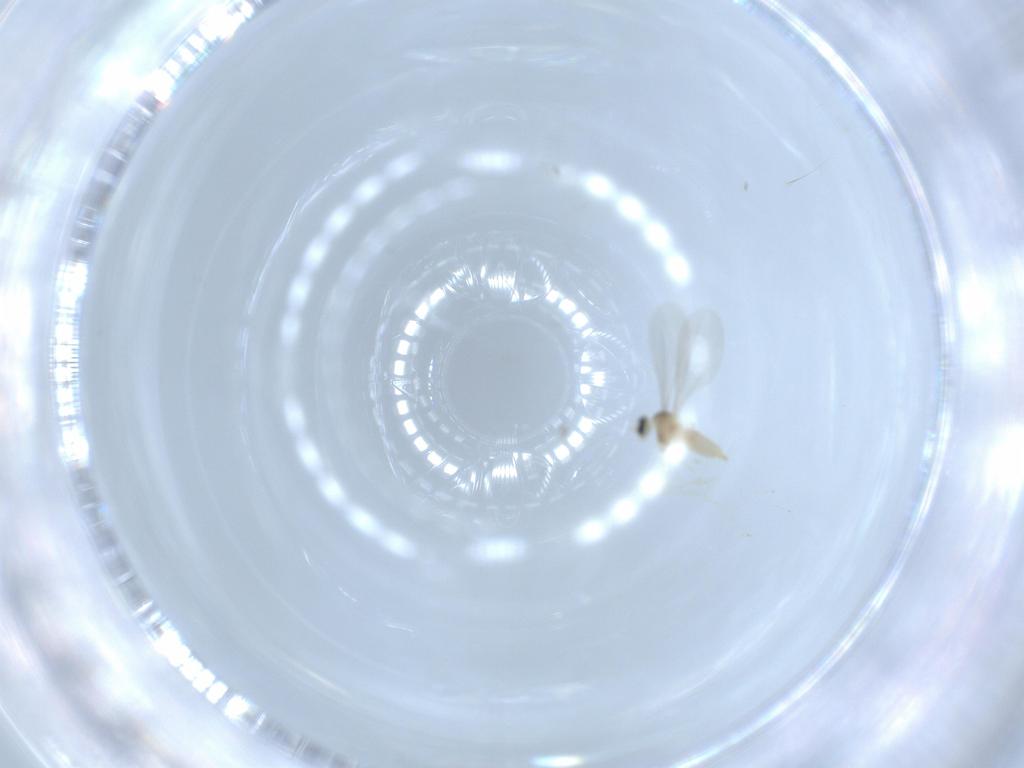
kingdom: Animalia
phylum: Arthropoda
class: Insecta
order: Diptera
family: Cecidomyiidae
